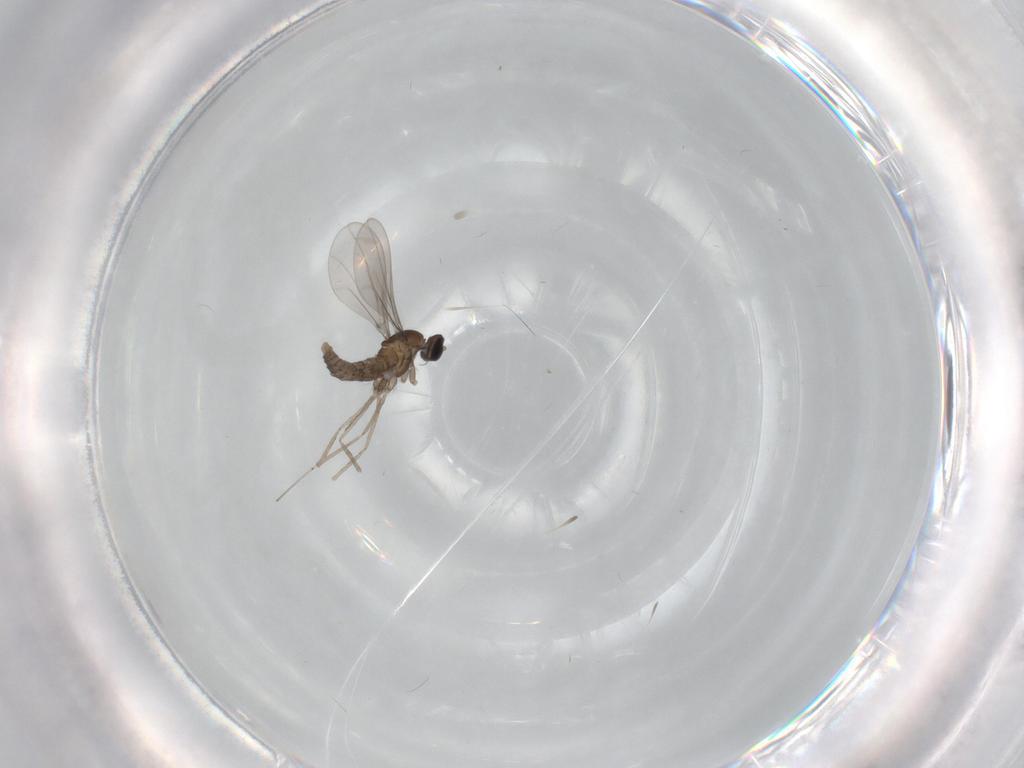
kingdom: Animalia
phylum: Arthropoda
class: Insecta
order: Diptera
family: Cecidomyiidae
